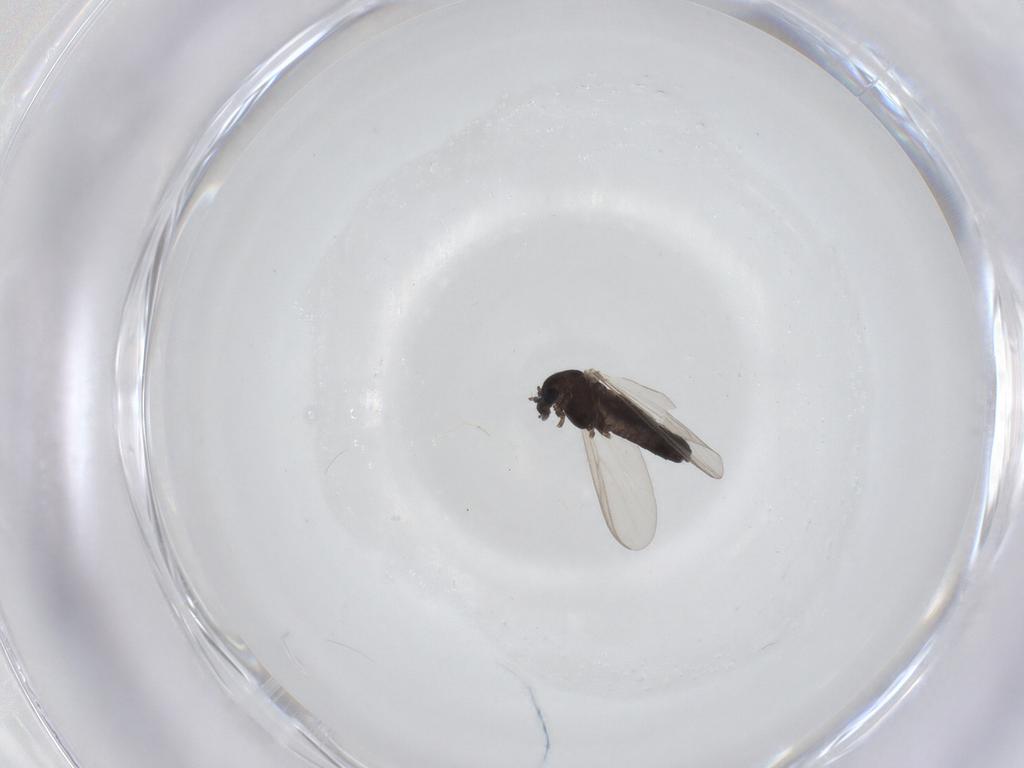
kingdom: Animalia
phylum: Arthropoda
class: Insecta
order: Diptera
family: Chironomidae
